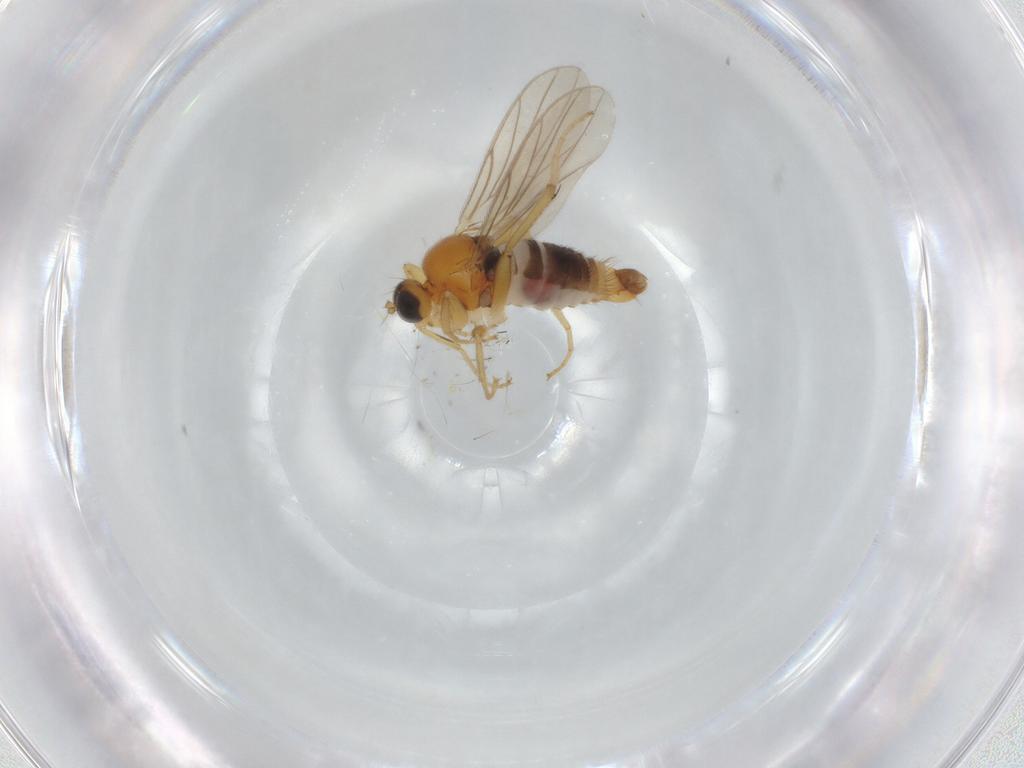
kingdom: Animalia
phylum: Arthropoda
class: Insecta
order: Diptera
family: Hybotidae
